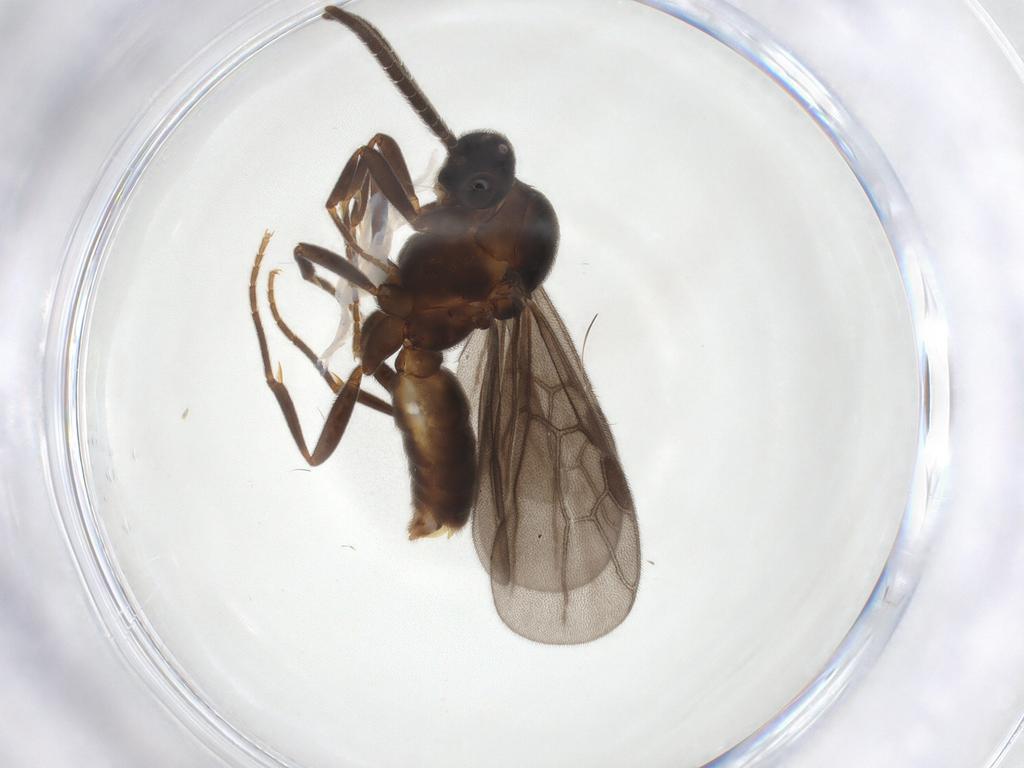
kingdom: Animalia
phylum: Arthropoda
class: Insecta
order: Hymenoptera
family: Formicidae
